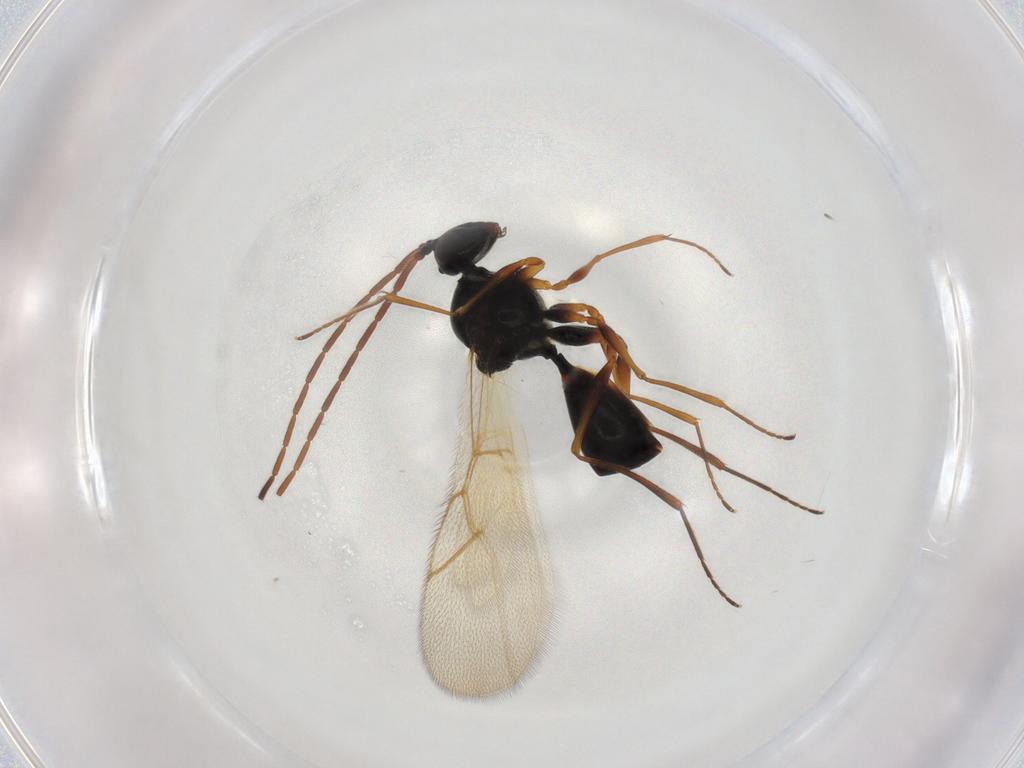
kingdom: Animalia
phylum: Arthropoda
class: Insecta
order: Hymenoptera
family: Figitidae
